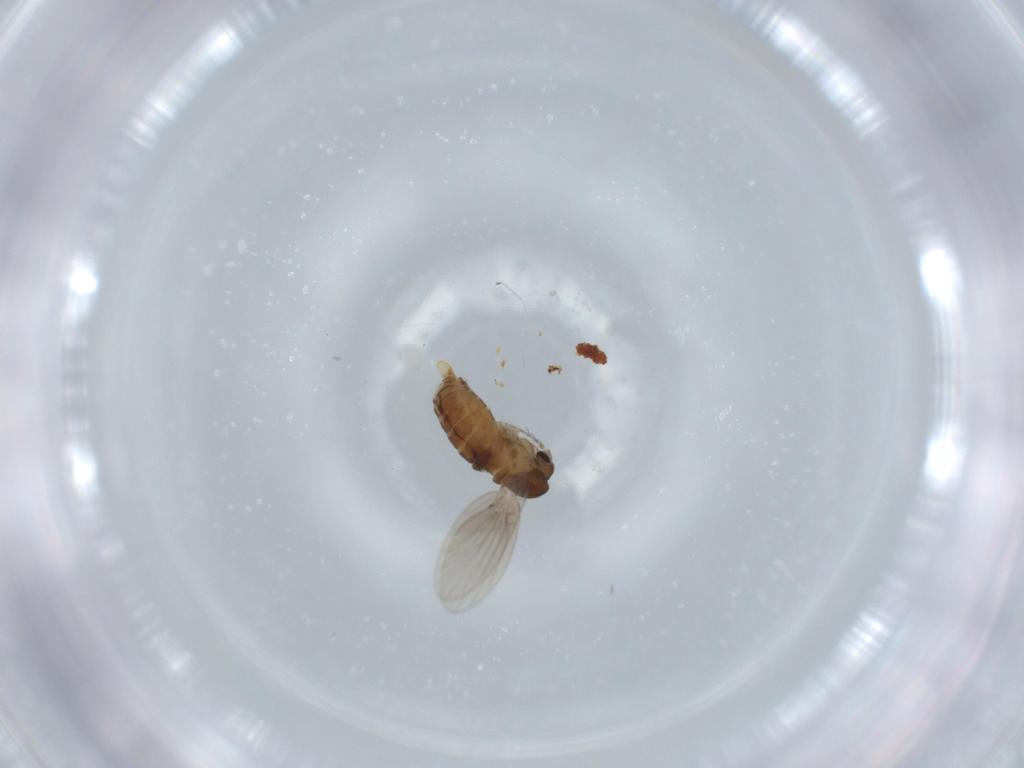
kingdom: Animalia
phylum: Arthropoda
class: Insecta
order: Diptera
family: Sciaridae
